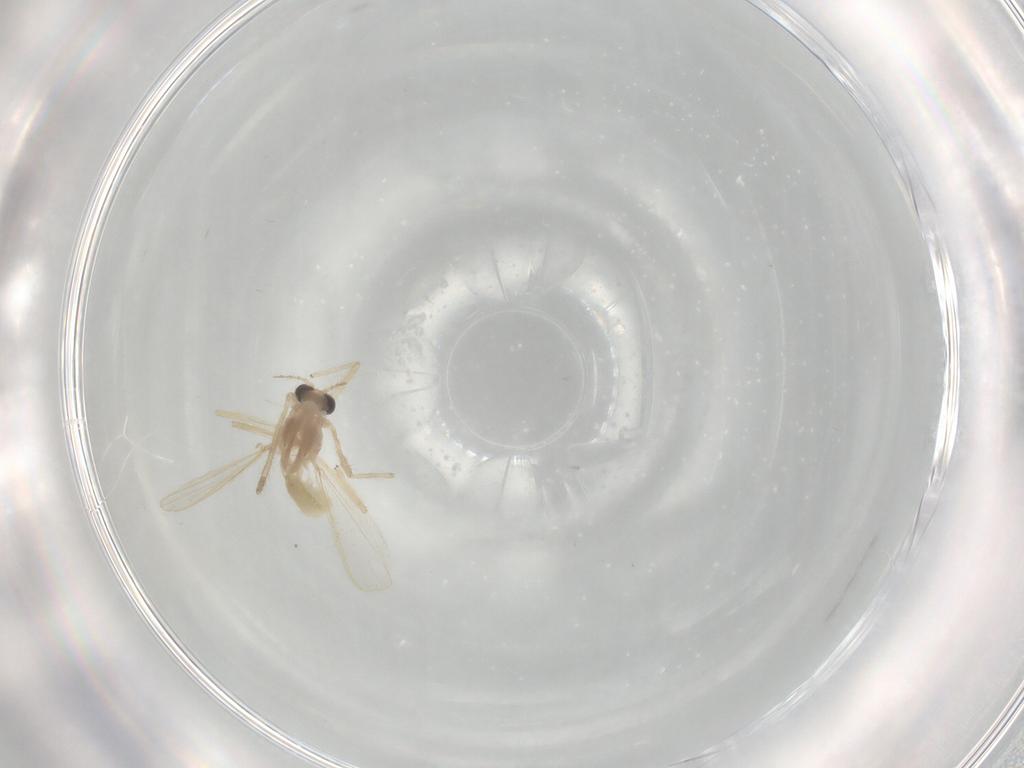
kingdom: Animalia
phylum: Arthropoda
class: Insecta
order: Diptera
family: Chironomidae
